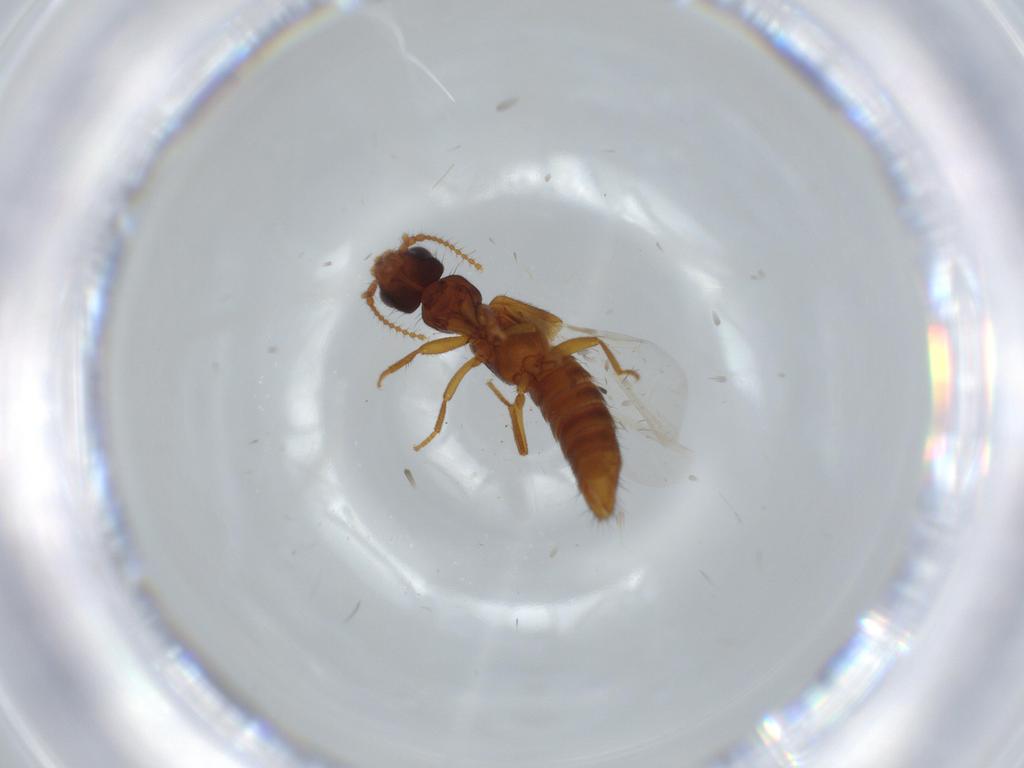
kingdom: Animalia
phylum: Arthropoda
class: Insecta
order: Coleoptera
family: Staphylinidae
